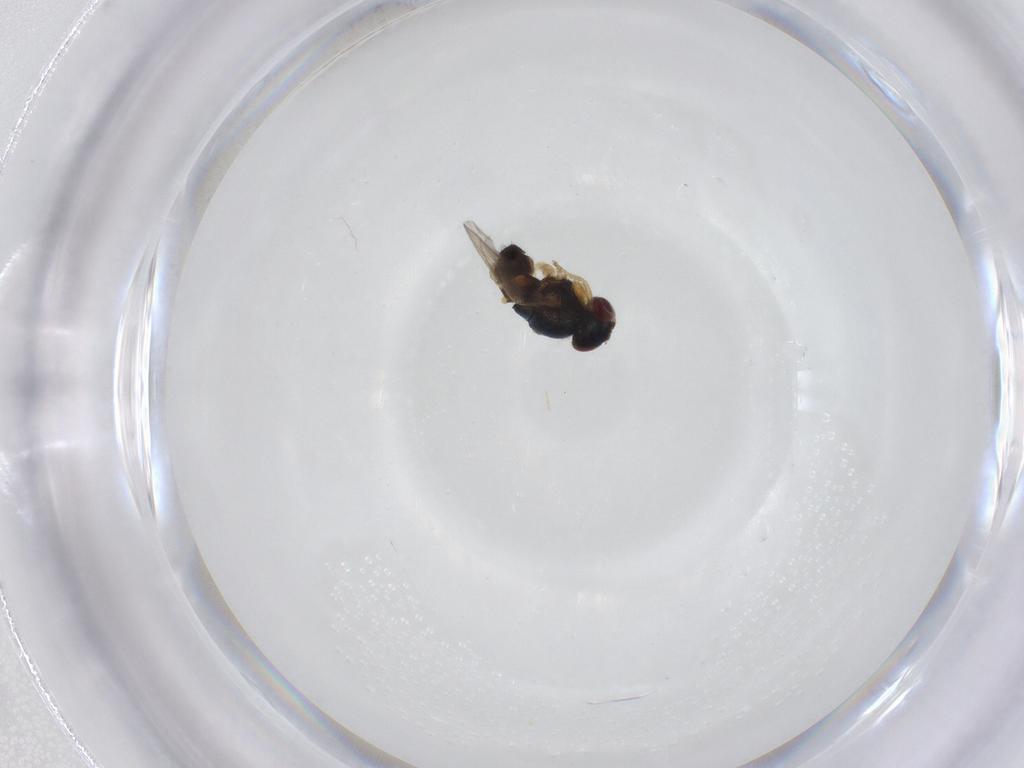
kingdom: Animalia
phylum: Arthropoda
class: Insecta
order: Diptera
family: Chloropidae
